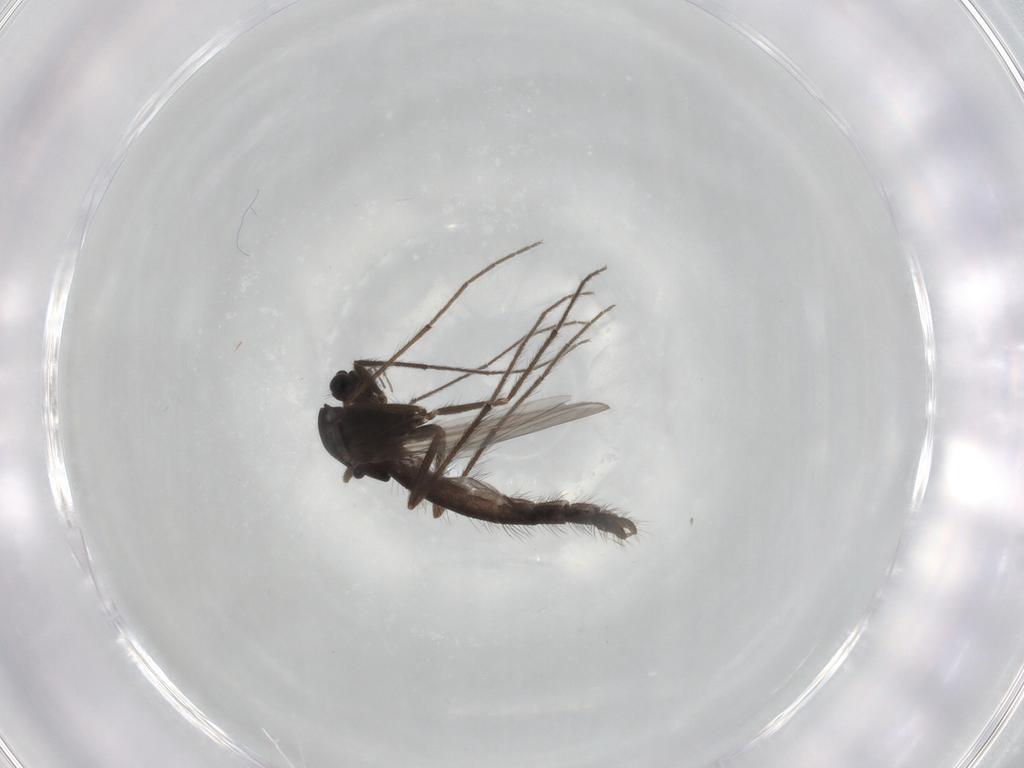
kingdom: Animalia
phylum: Arthropoda
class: Insecta
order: Diptera
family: Chironomidae
